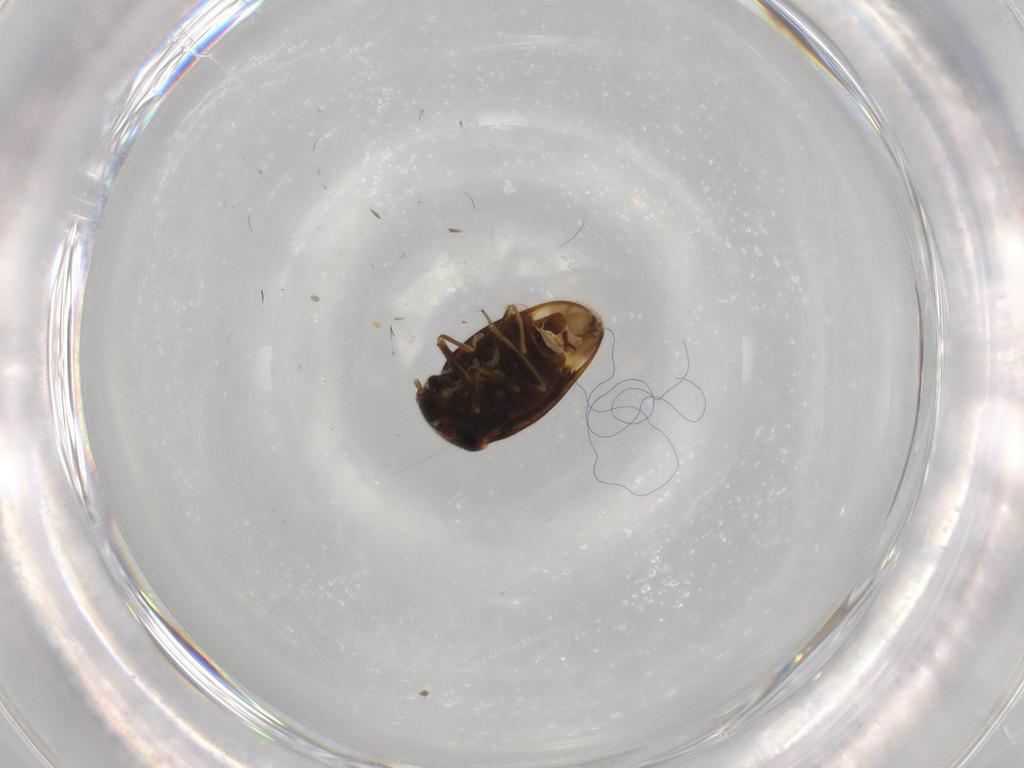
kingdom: Animalia
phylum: Arthropoda
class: Insecta
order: Hemiptera
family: Schizopteridae
